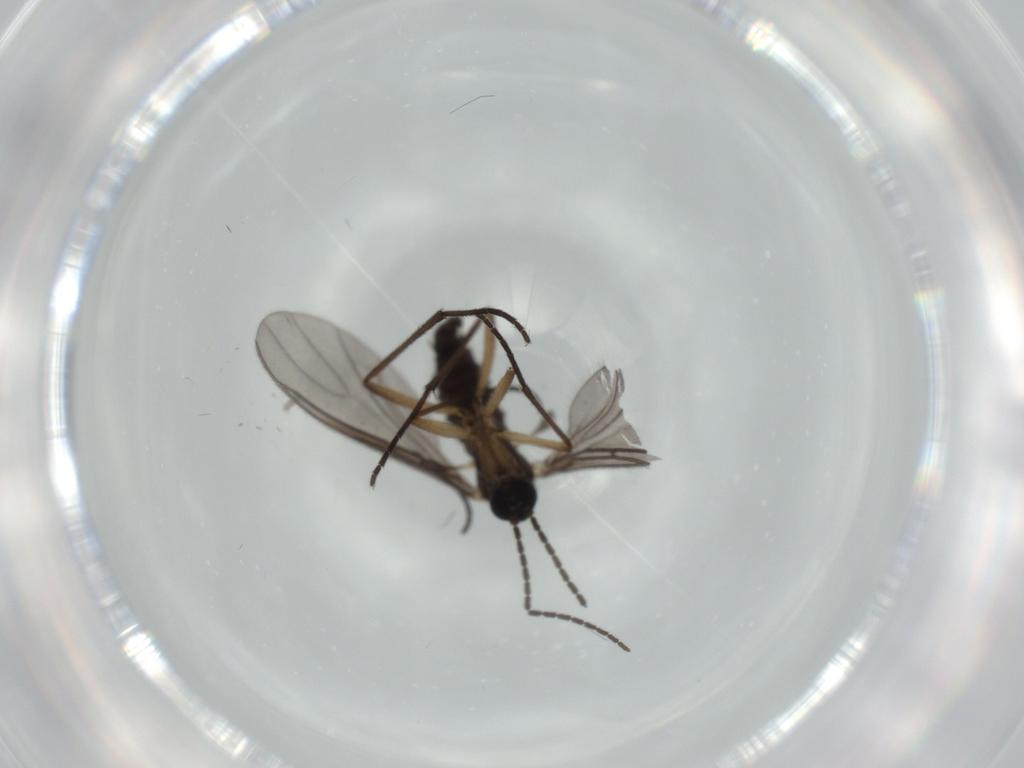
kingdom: Animalia
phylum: Arthropoda
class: Insecta
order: Diptera
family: Sciaridae
